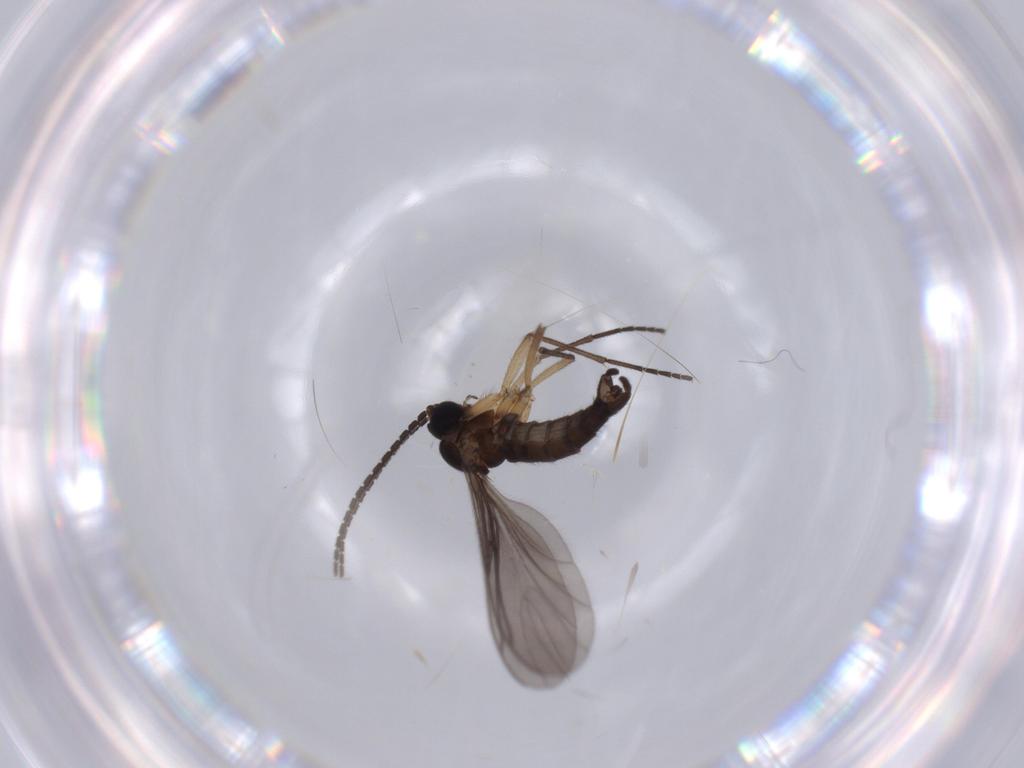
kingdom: Animalia
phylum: Arthropoda
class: Insecta
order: Diptera
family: Sciaridae
